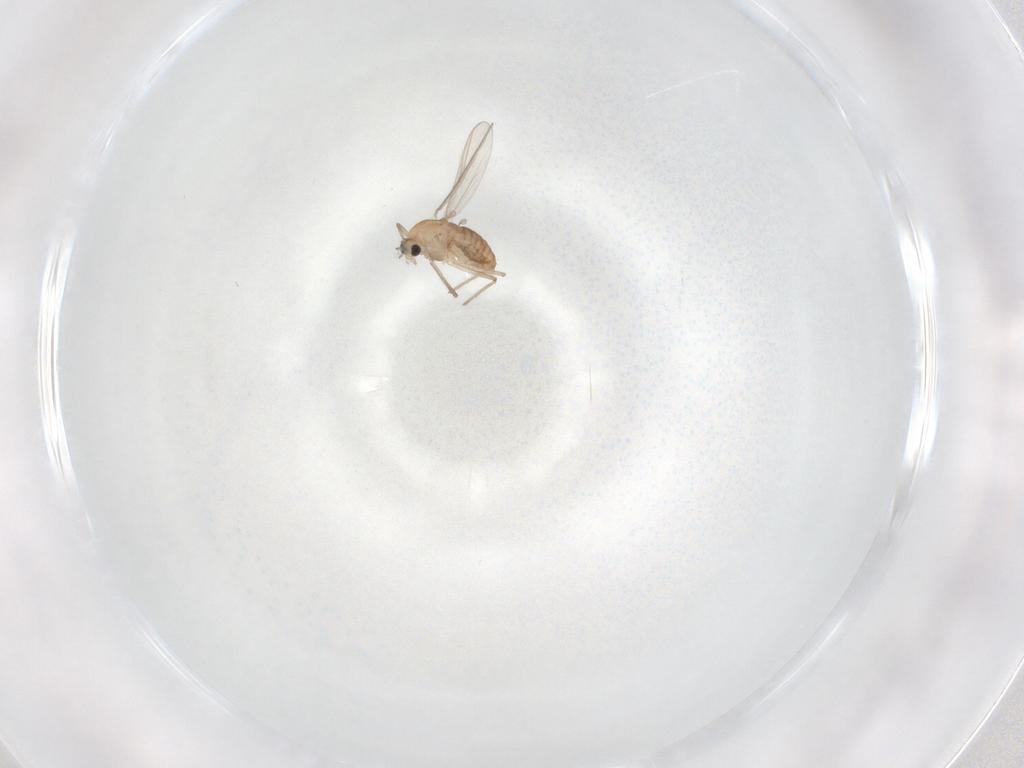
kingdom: Animalia
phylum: Arthropoda
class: Insecta
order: Diptera
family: Chironomidae
